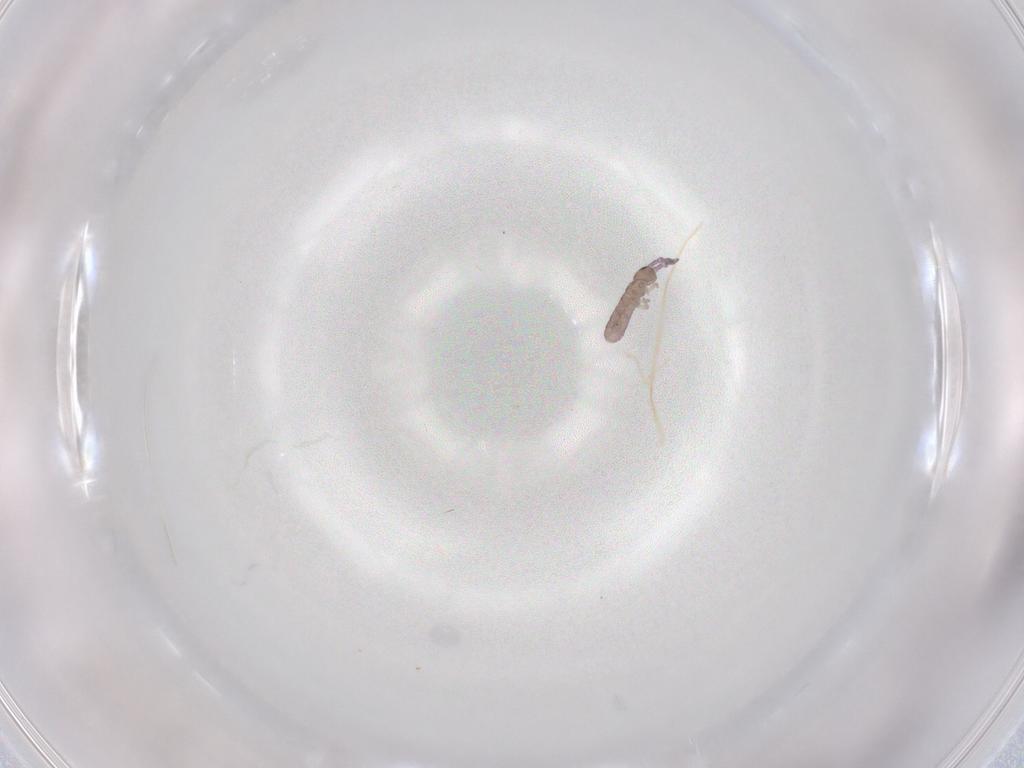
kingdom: Animalia
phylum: Arthropoda
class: Collembola
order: Entomobryomorpha
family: Isotomidae
